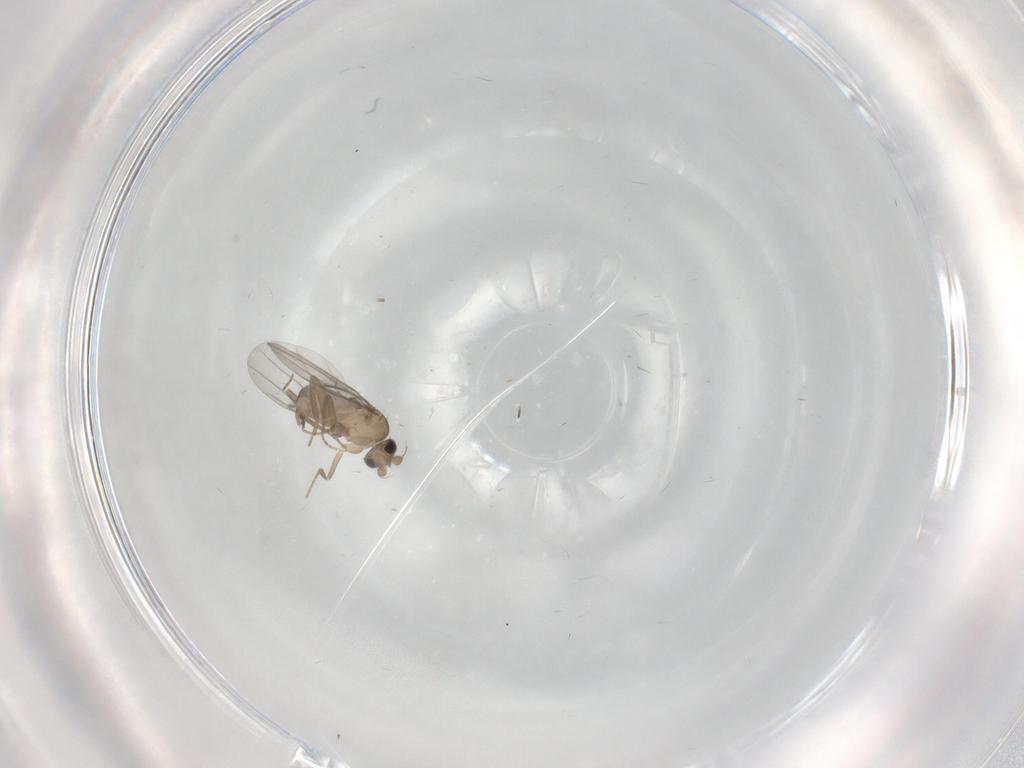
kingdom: Animalia
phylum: Arthropoda
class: Insecta
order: Diptera
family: Cecidomyiidae
